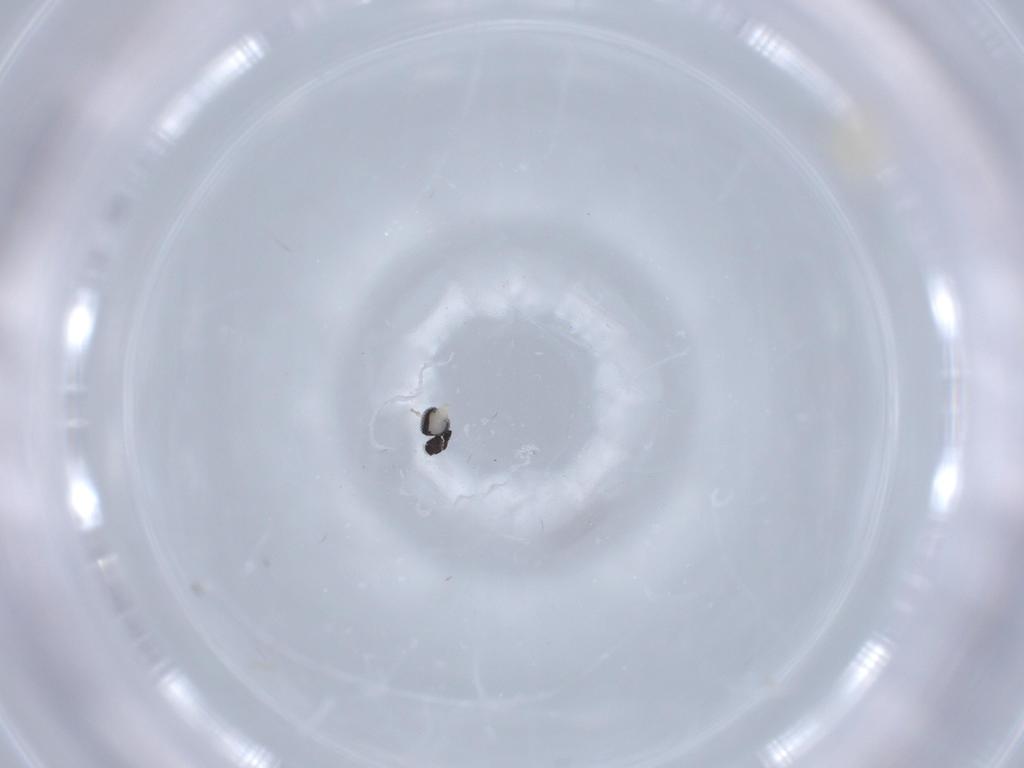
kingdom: Animalia
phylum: Arthropoda
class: Insecta
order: Diptera
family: Cecidomyiidae
